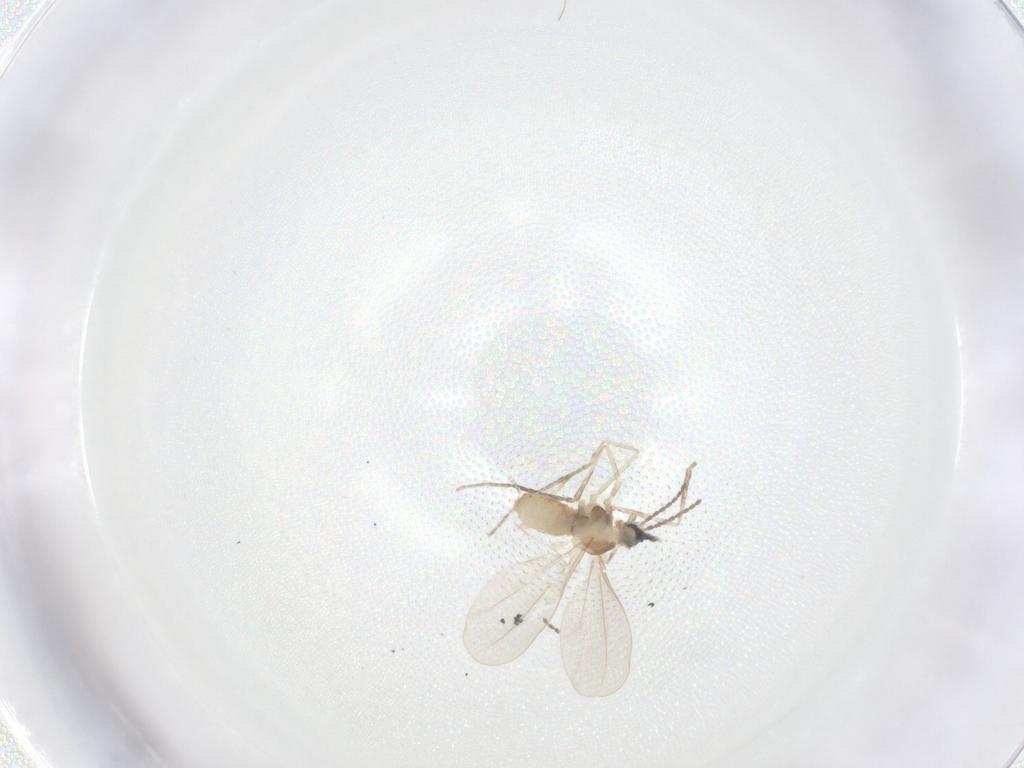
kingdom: Animalia
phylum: Arthropoda
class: Insecta
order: Diptera
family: Cecidomyiidae
